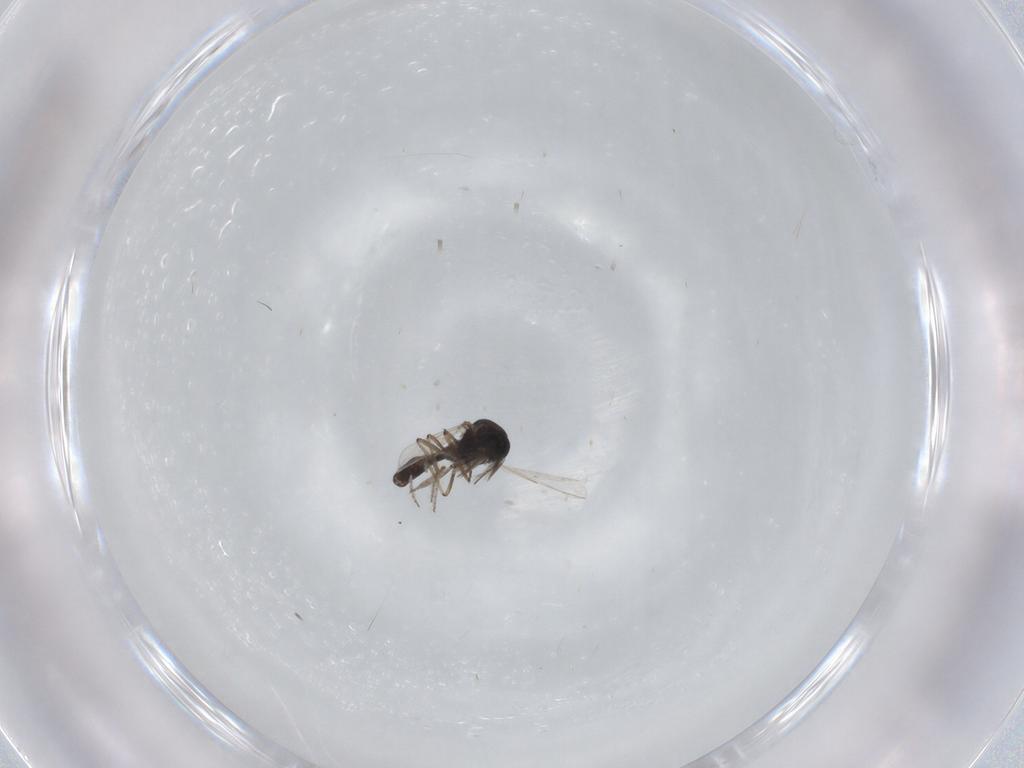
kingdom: Animalia
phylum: Arthropoda
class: Insecta
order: Diptera
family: Ceratopogonidae
